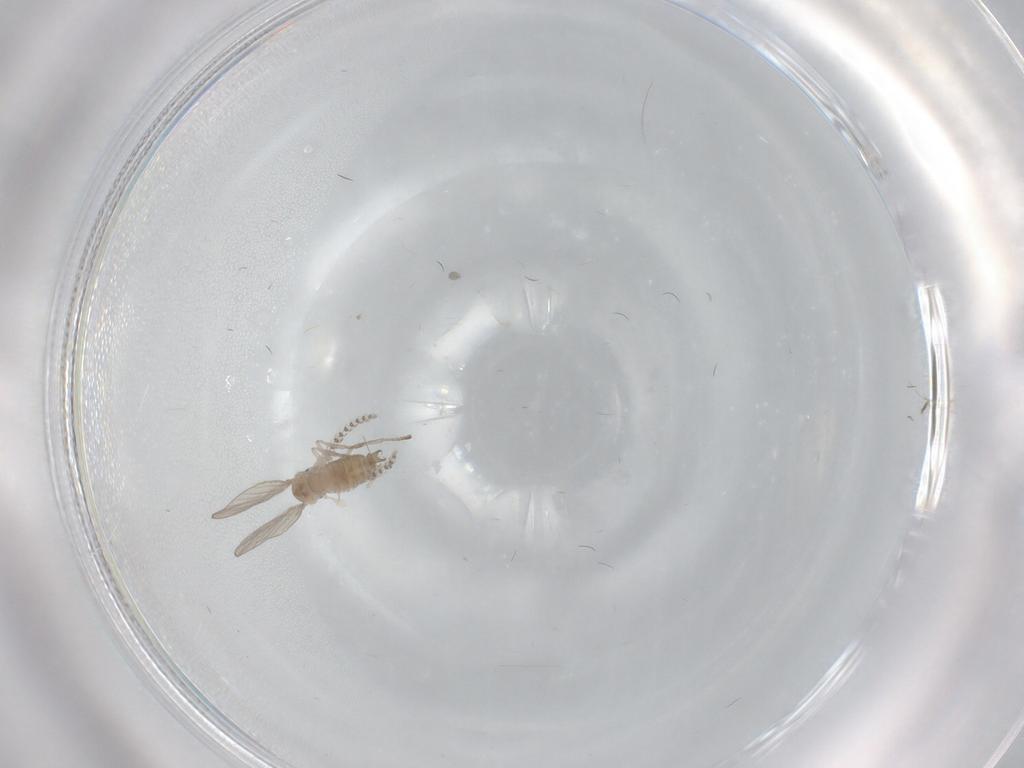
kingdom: Animalia
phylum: Arthropoda
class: Insecta
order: Diptera
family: Psychodidae
